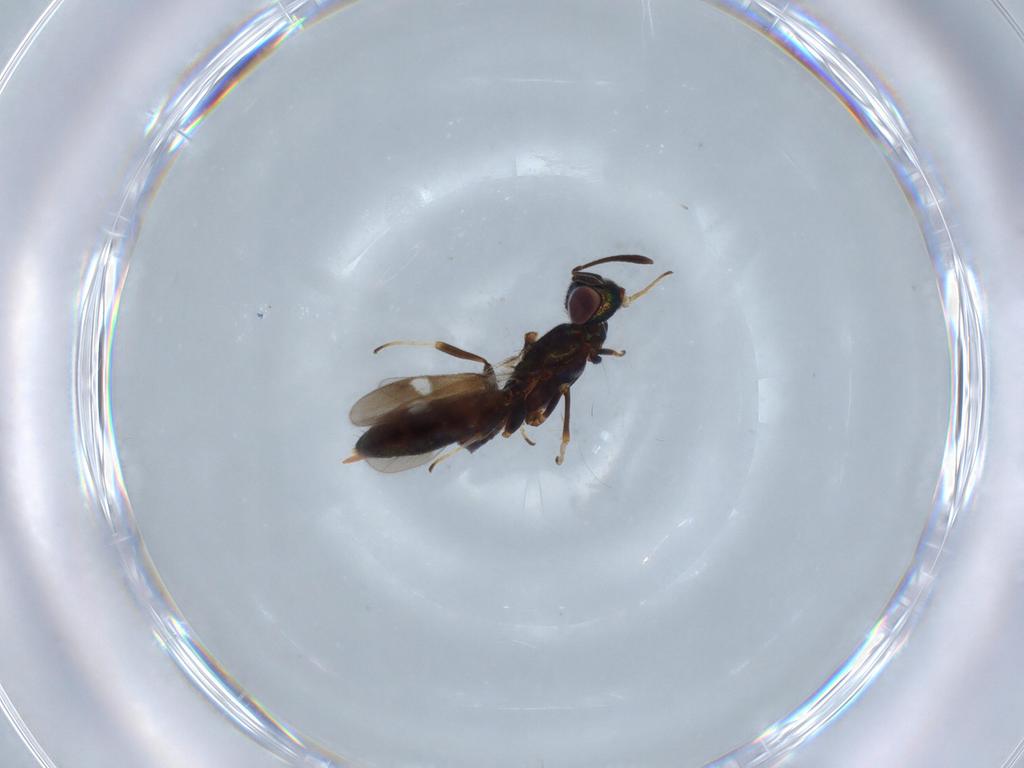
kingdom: Animalia
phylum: Arthropoda
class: Insecta
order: Hymenoptera
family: Eupelmidae
